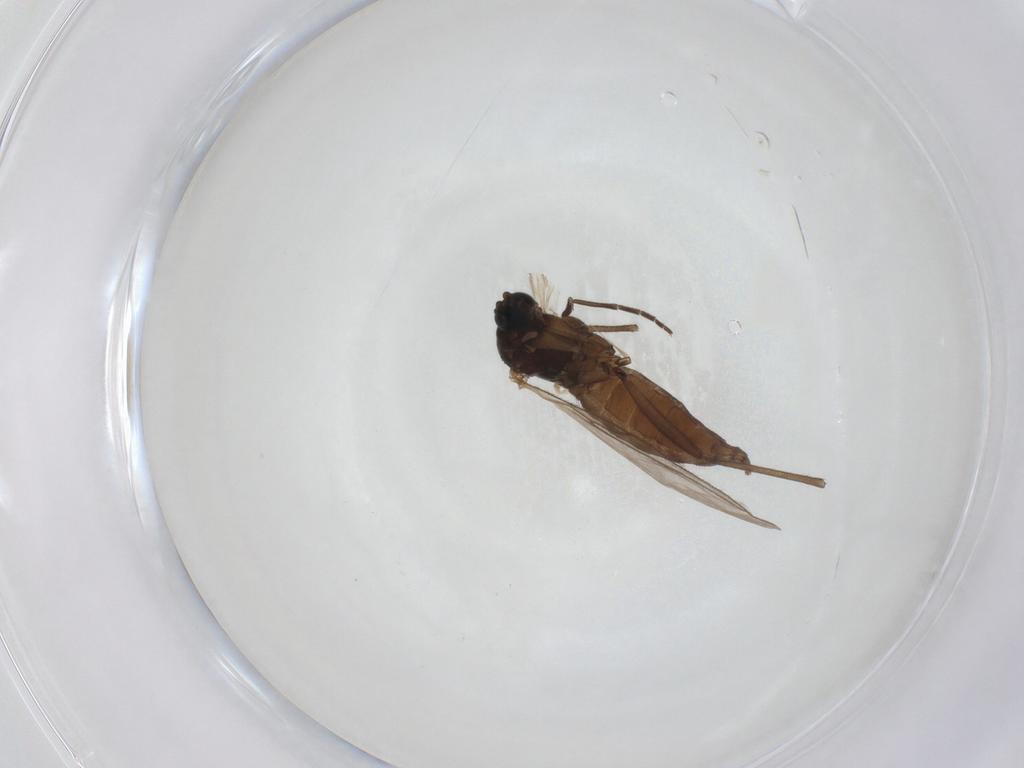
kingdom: Animalia
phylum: Arthropoda
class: Insecta
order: Diptera
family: Sciaridae
